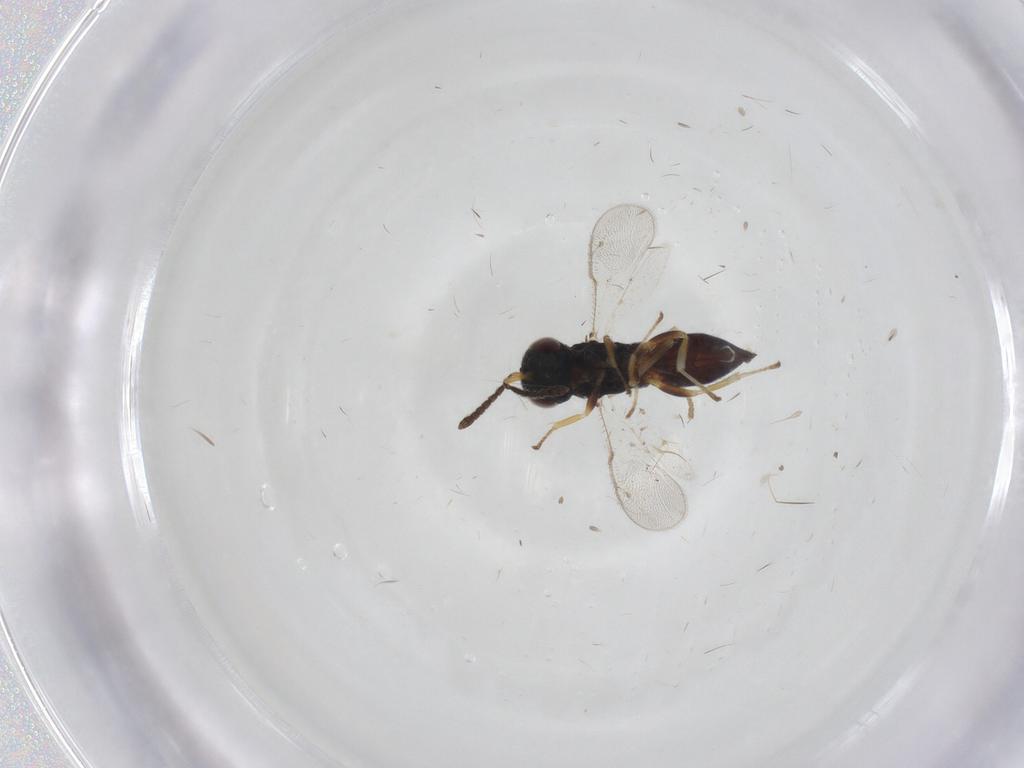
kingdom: Animalia
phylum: Arthropoda
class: Insecta
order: Hymenoptera
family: Pteromalidae
